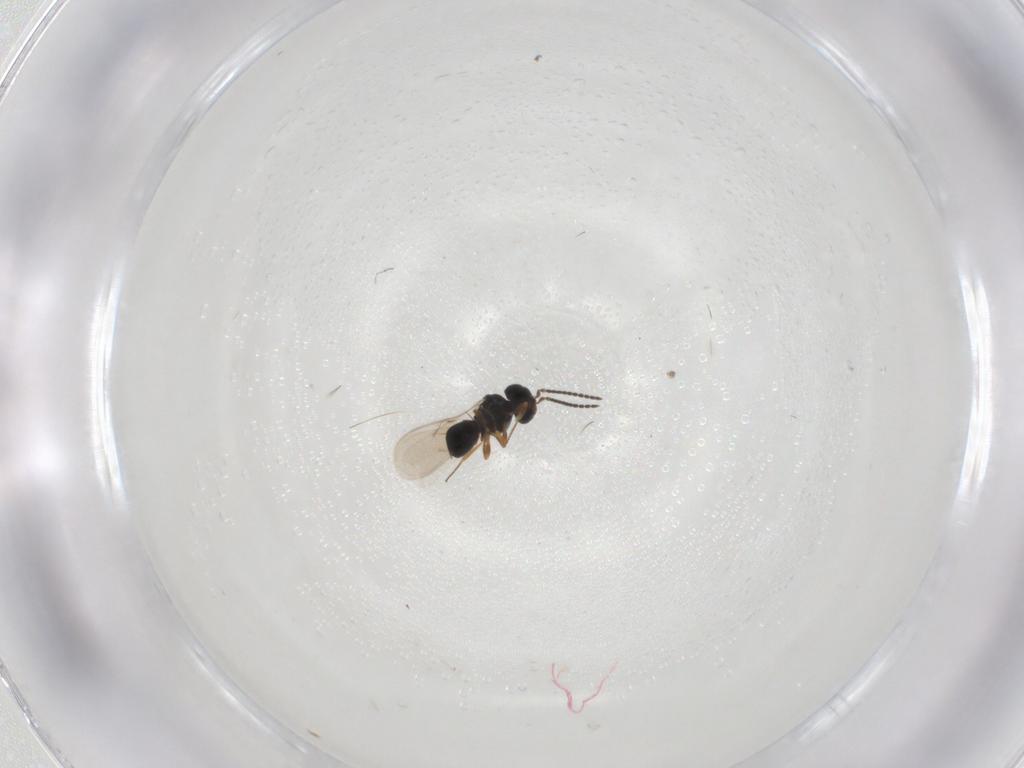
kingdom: Animalia
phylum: Arthropoda
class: Insecta
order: Hymenoptera
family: Scelionidae
